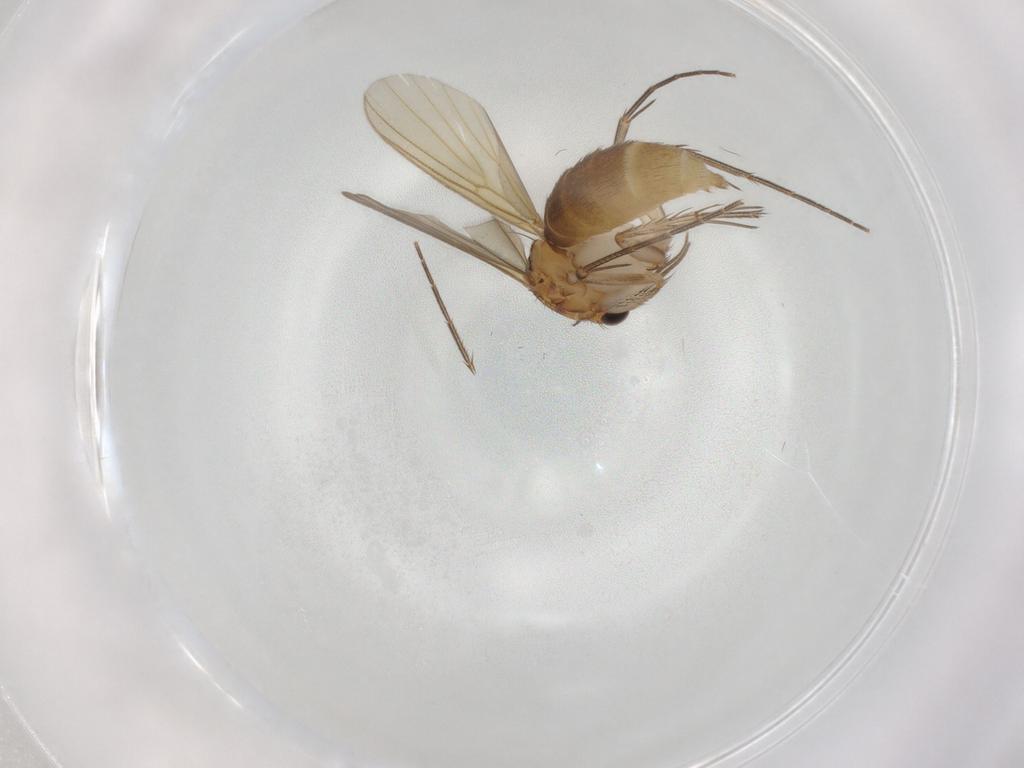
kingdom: Animalia
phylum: Arthropoda
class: Insecta
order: Diptera
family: Mycetophilidae
